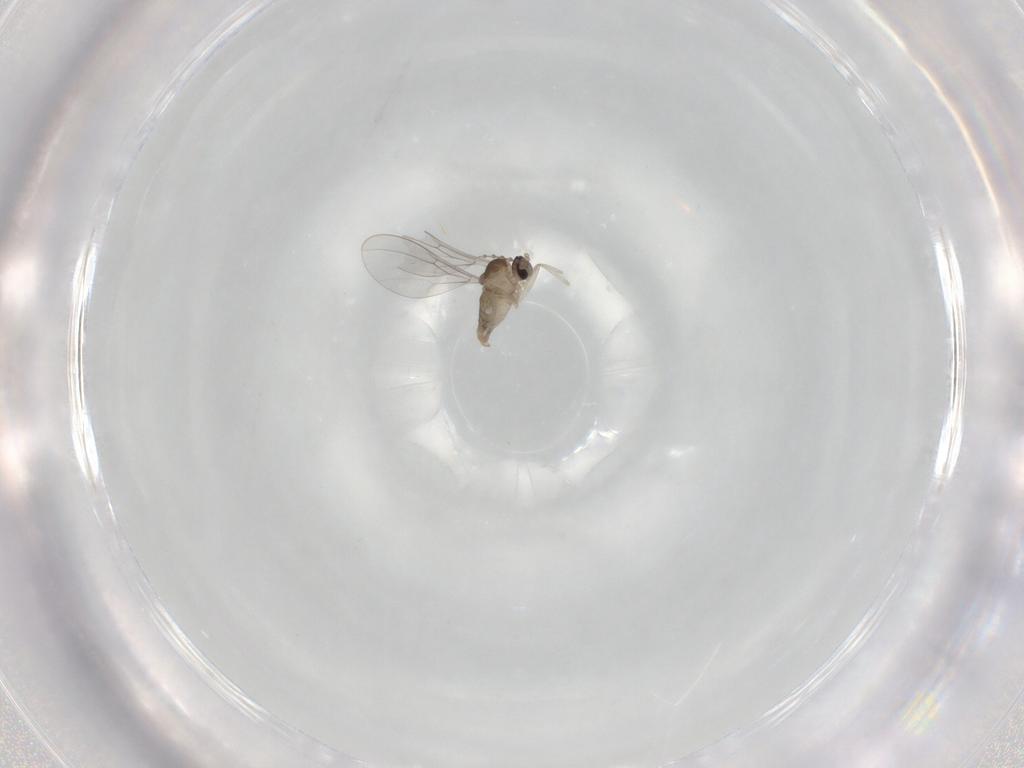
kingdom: Animalia
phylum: Arthropoda
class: Insecta
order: Diptera
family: Cecidomyiidae
